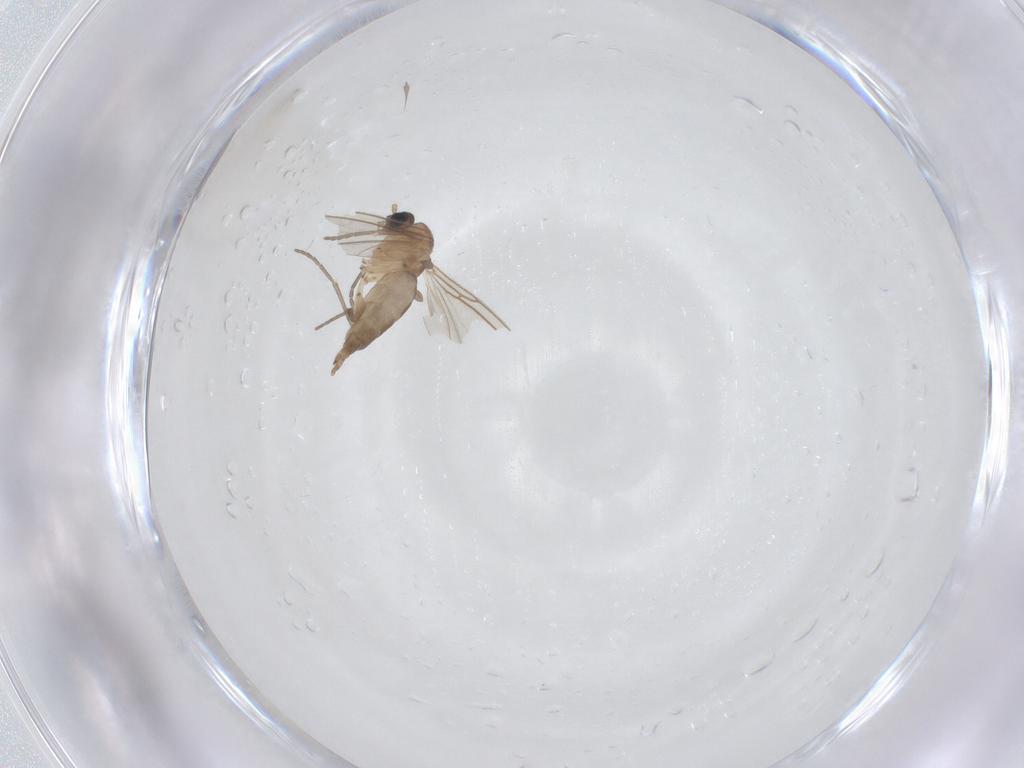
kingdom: Animalia
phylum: Arthropoda
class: Insecta
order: Diptera
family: Sciaridae
